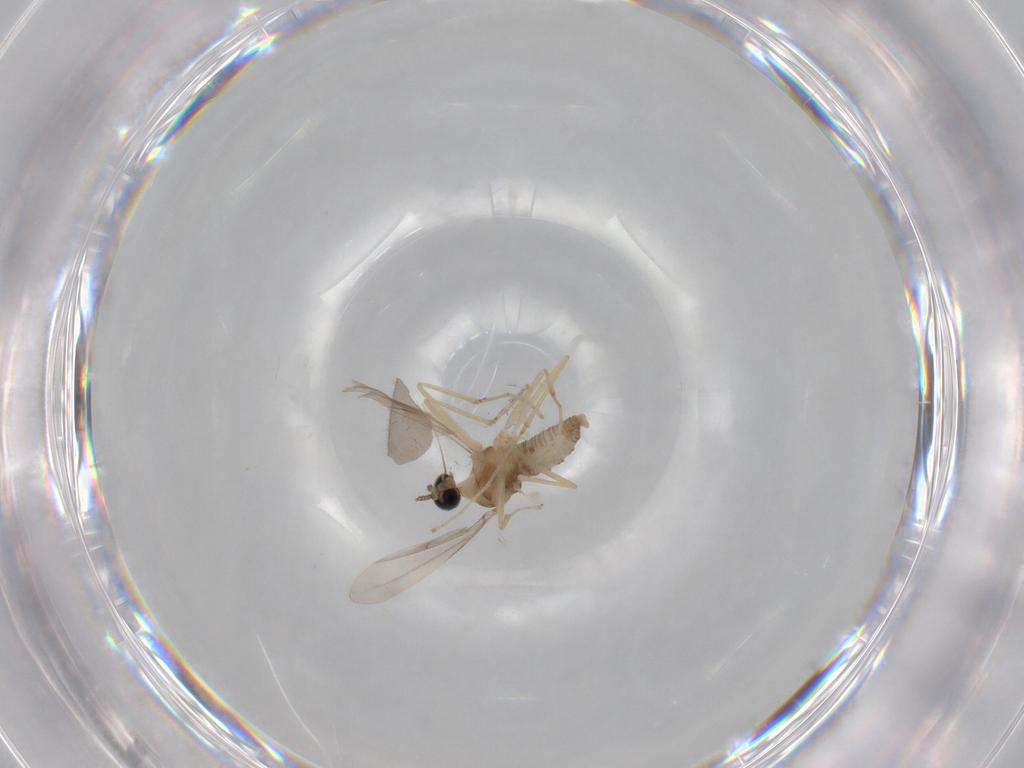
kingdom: Animalia
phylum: Arthropoda
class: Insecta
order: Diptera
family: Cecidomyiidae
